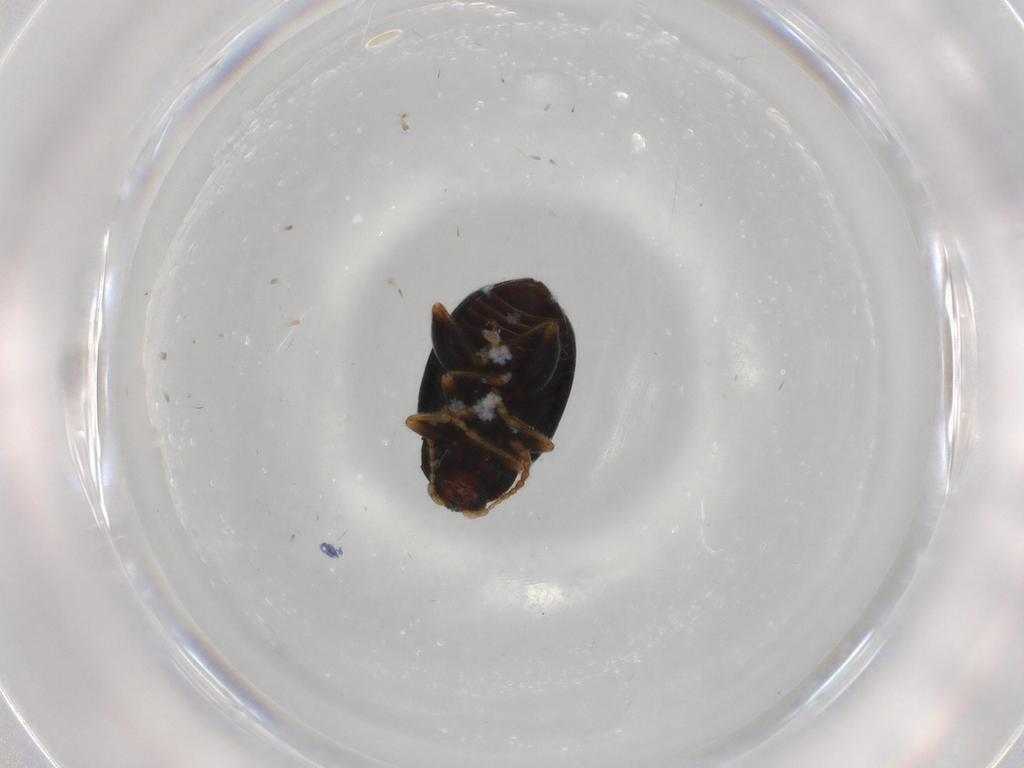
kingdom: Animalia
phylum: Arthropoda
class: Insecta
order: Coleoptera
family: Chrysomelidae
